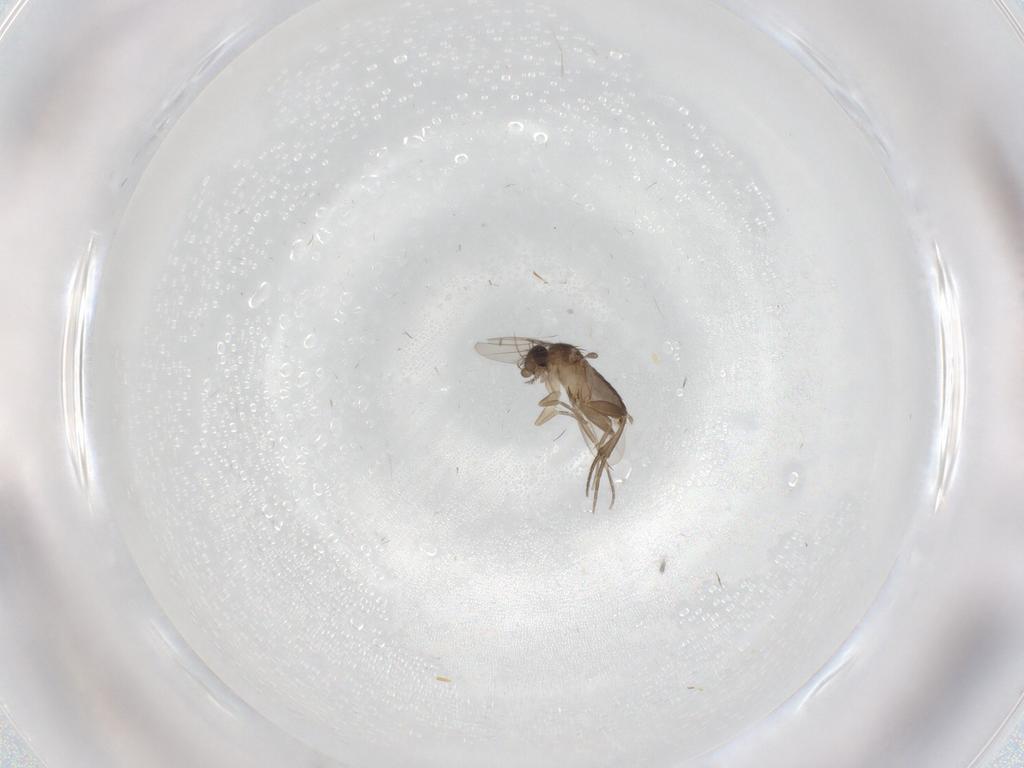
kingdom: Animalia
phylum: Arthropoda
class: Insecta
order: Diptera
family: Phoridae
